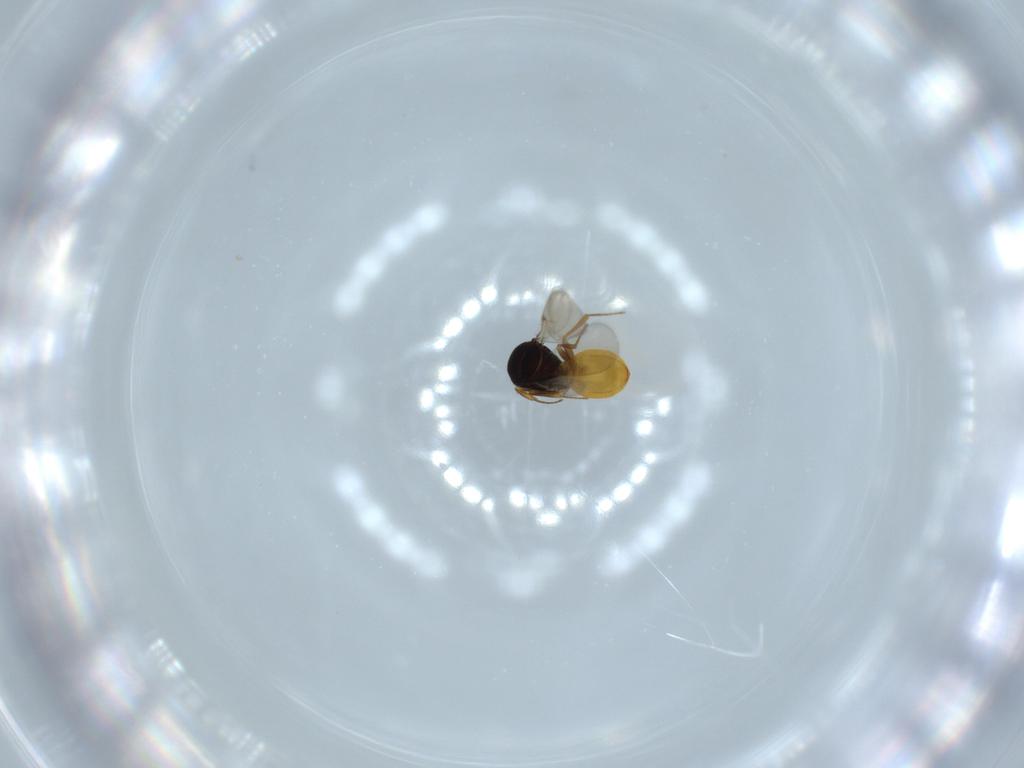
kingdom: Animalia
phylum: Arthropoda
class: Insecta
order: Hymenoptera
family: Scelionidae
